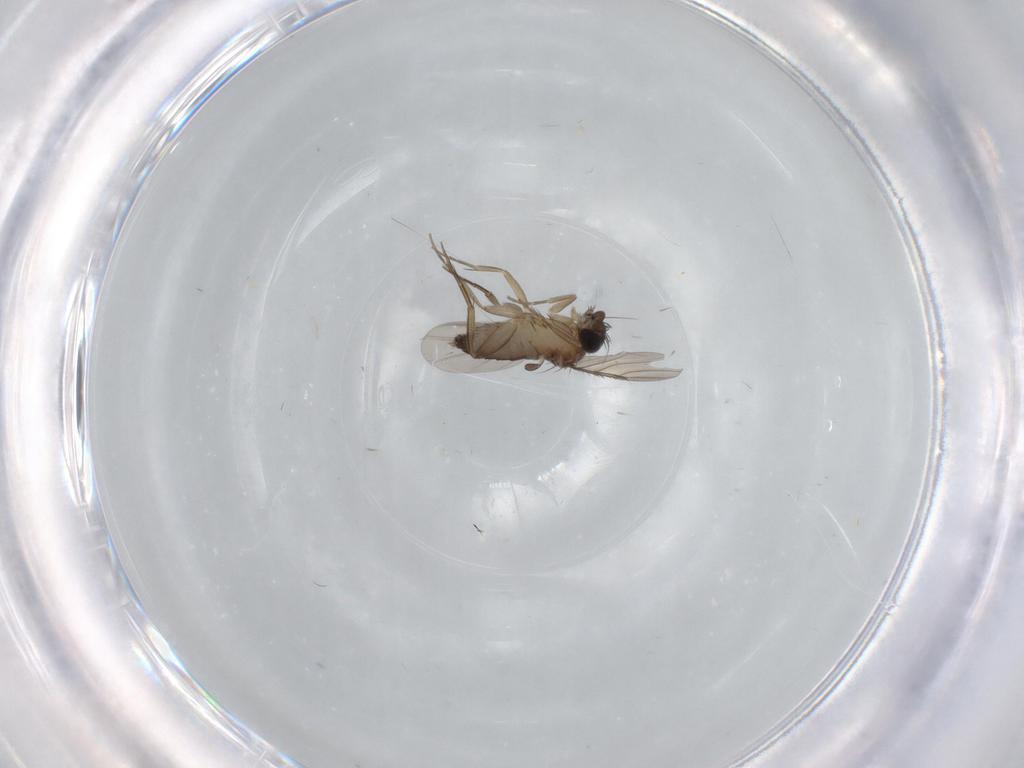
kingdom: Animalia
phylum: Arthropoda
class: Insecta
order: Diptera
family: Phoridae
